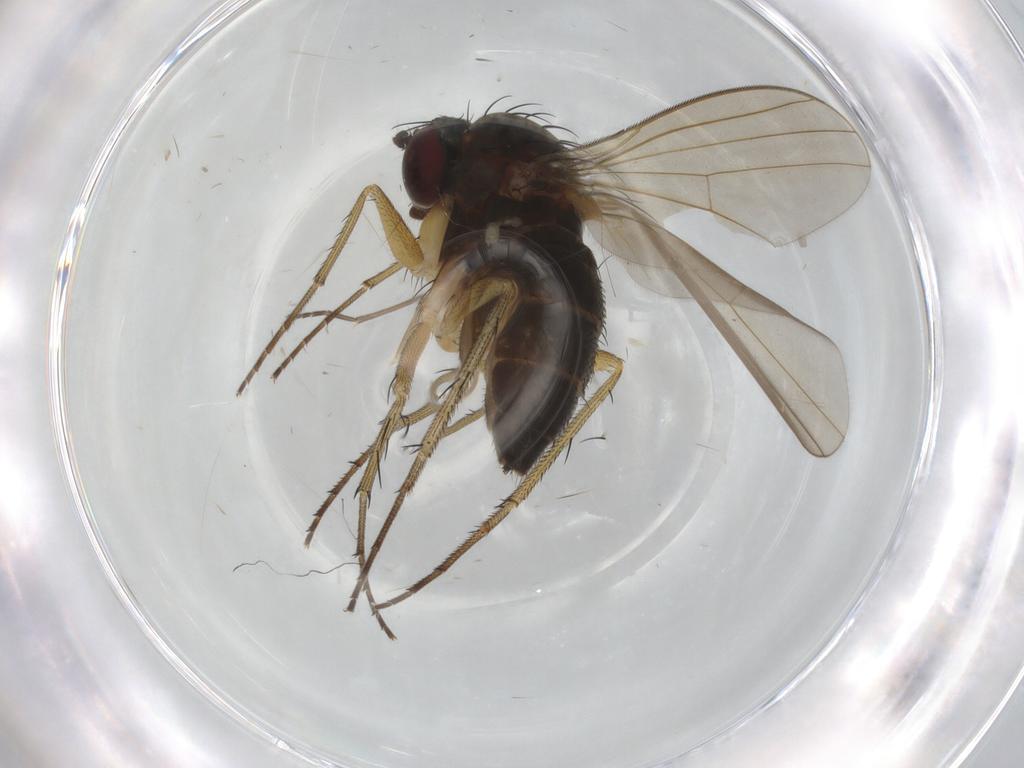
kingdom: Animalia
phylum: Arthropoda
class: Insecta
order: Diptera
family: Dolichopodidae
